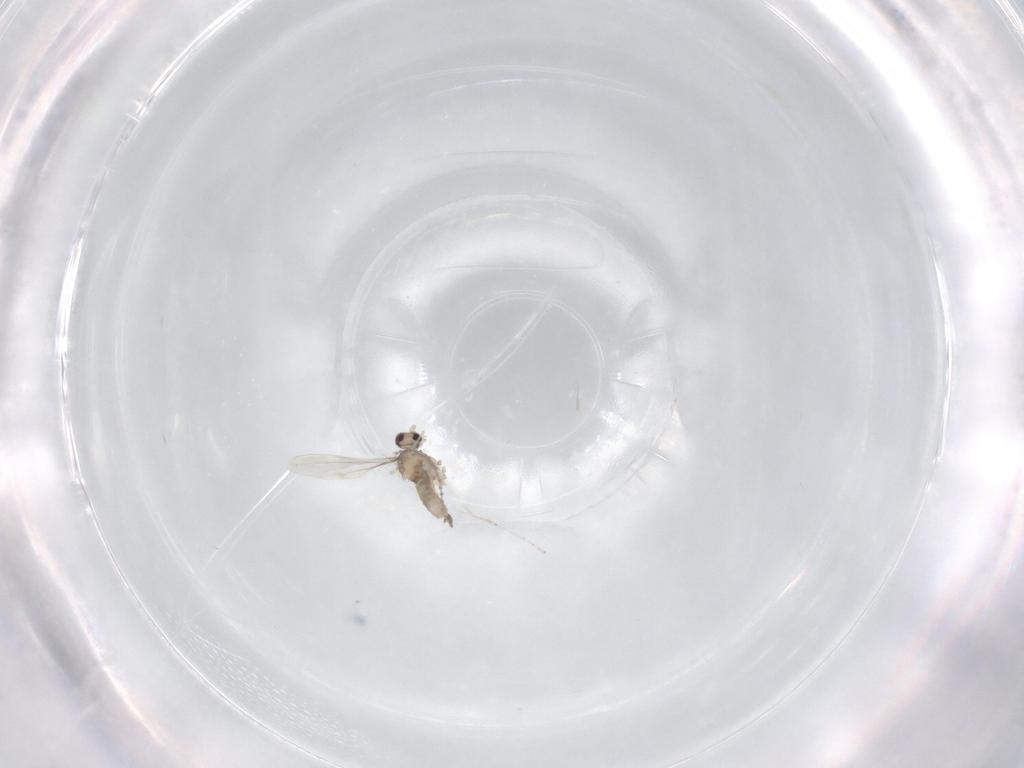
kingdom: Animalia
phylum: Arthropoda
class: Insecta
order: Diptera
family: Cecidomyiidae
